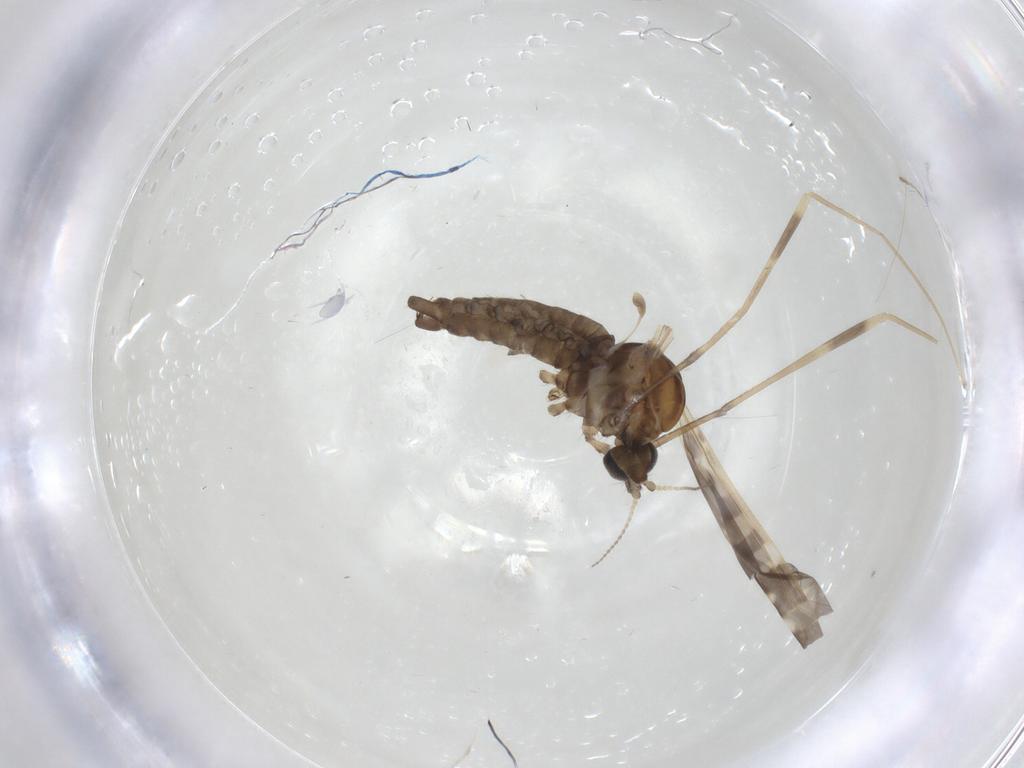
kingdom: Animalia
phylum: Arthropoda
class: Insecta
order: Diptera
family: Limoniidae
